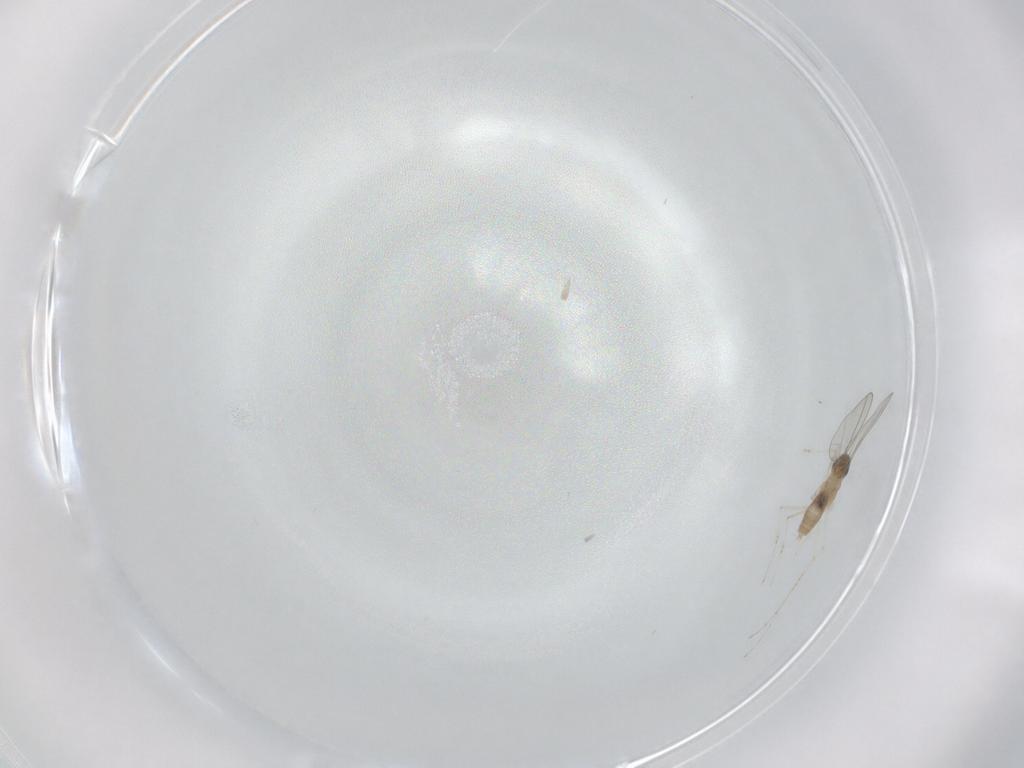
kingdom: Animalia
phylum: Arthropoda
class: Insecta
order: Diptera
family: Cecidomyiidae
